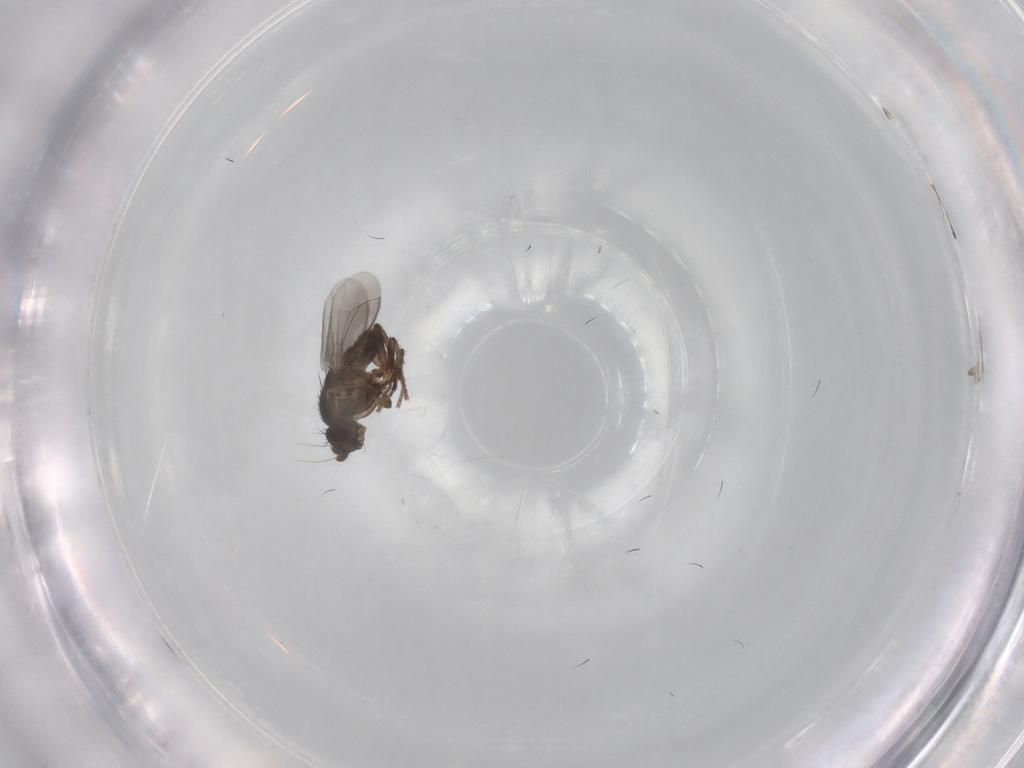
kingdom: Animalia
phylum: Arthropoda
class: Insecta
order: Diptera
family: Sphaeroceridae
